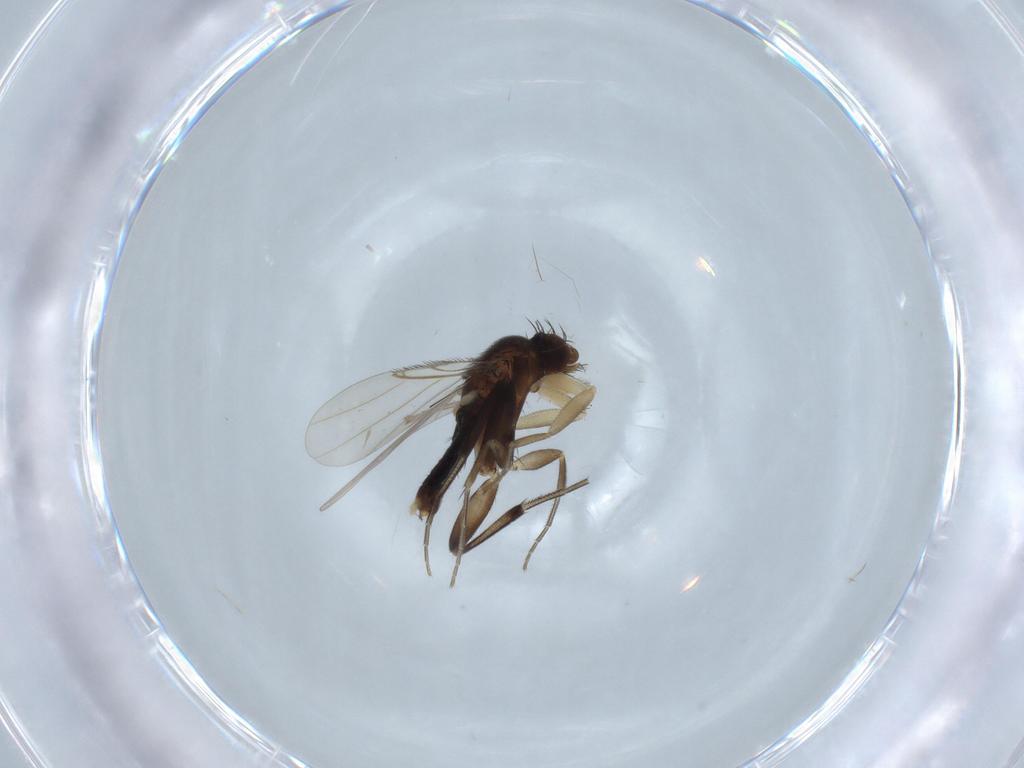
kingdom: Animalia
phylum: Arthropoda
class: Insecta
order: Diptera
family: Cecidomyiidae
